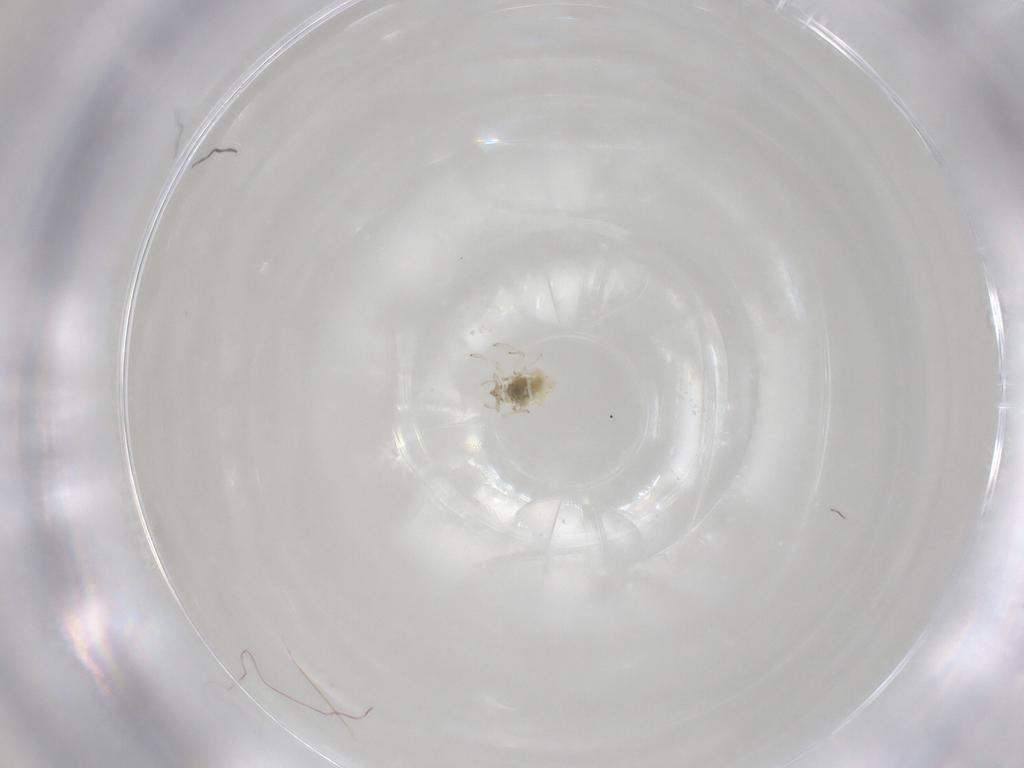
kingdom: Animalia
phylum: Arthropoda
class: Insecta
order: Neuroptera
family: Coniopterygidae
